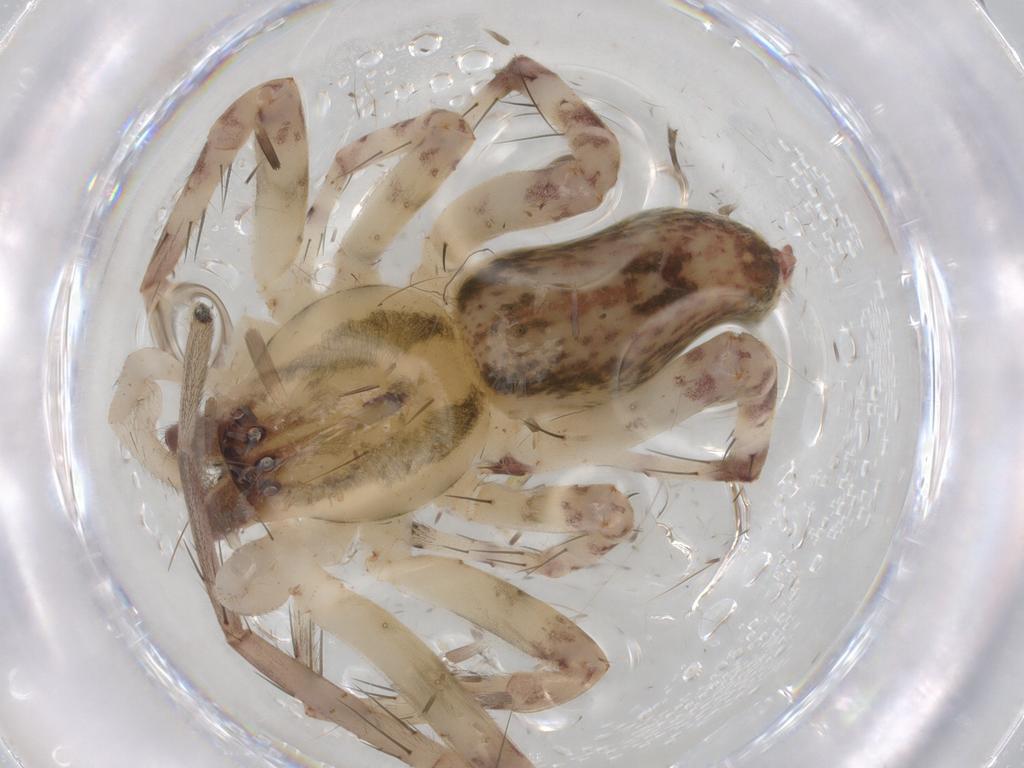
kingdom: Animalia
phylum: Arthropoda
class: Arachnida
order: Araneae
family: Anyphaenidae
